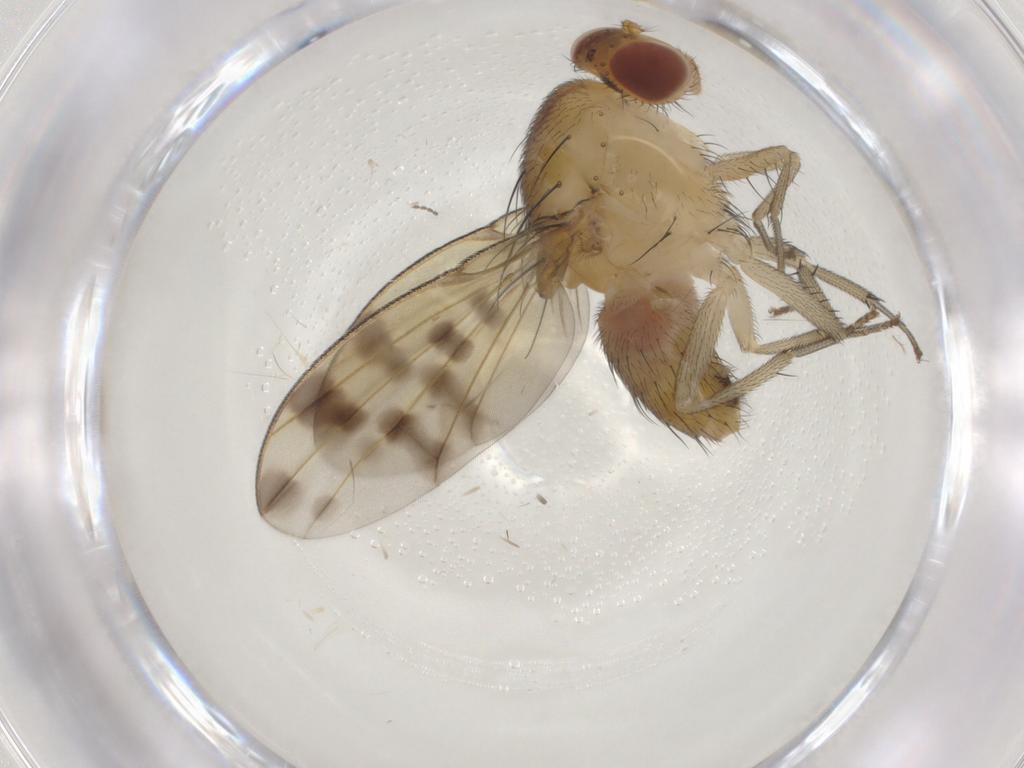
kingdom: Animalia
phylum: Arthropoda
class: Insecta
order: Diptera
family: Cecidomyiidae
